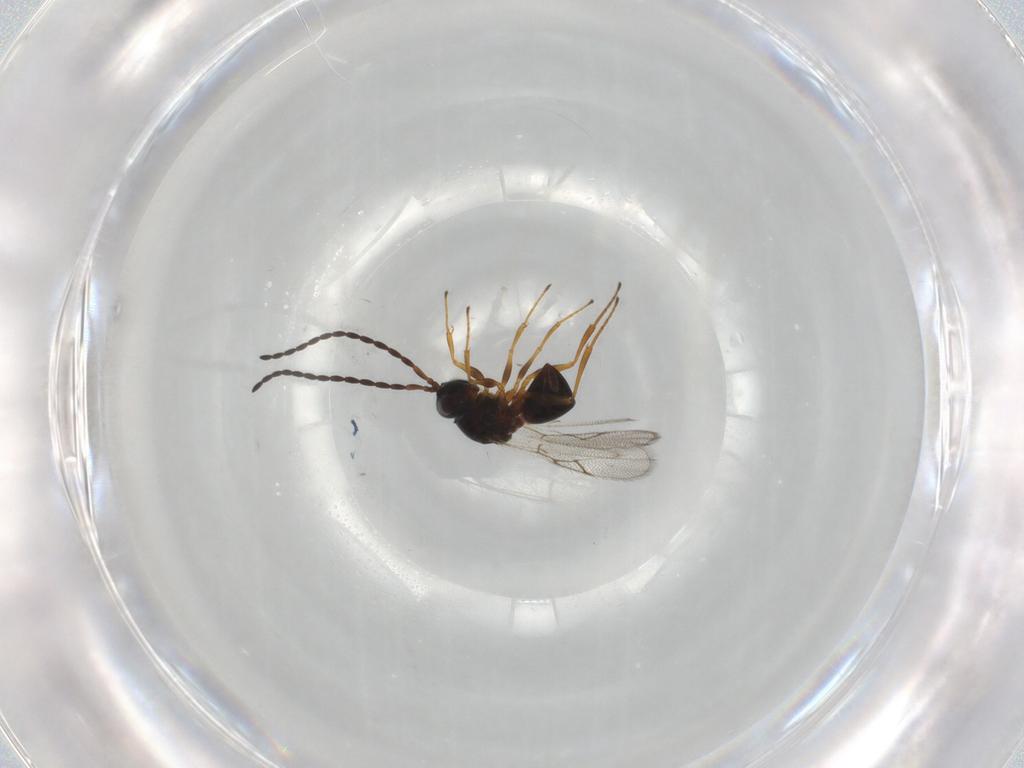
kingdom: Animalia
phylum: Arthropoda
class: Insecta
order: Hymenoptera
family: Figitidae
